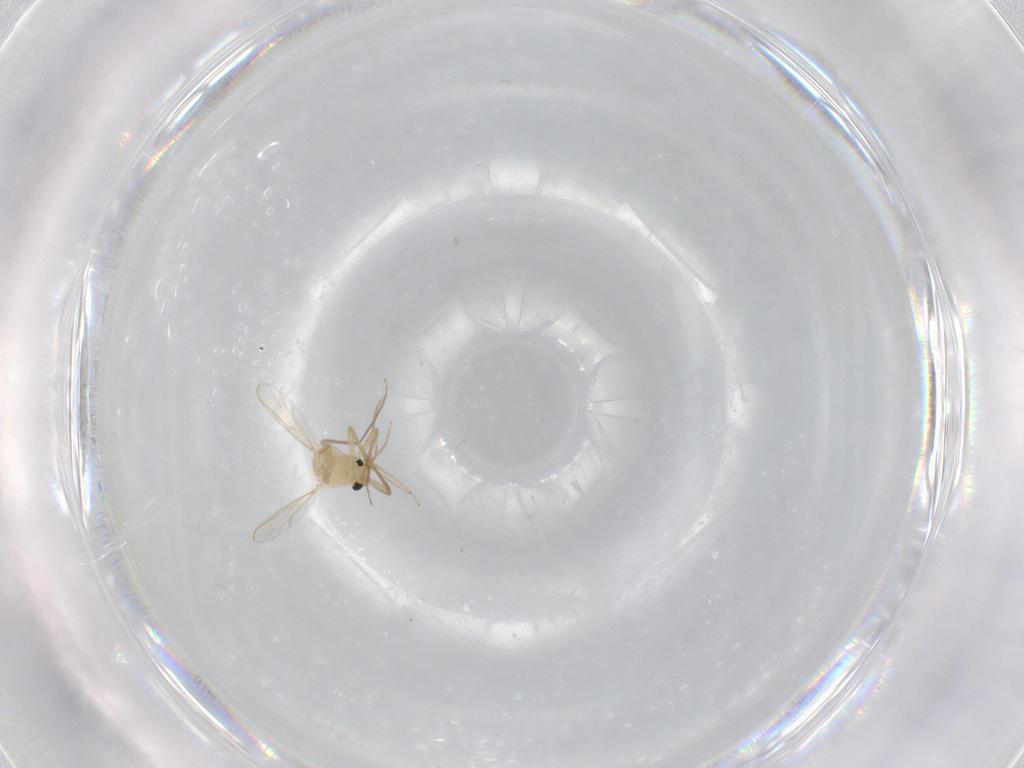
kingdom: Animalia
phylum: Arthropoda
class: Insecta
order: Diptera
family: Chironomidae
